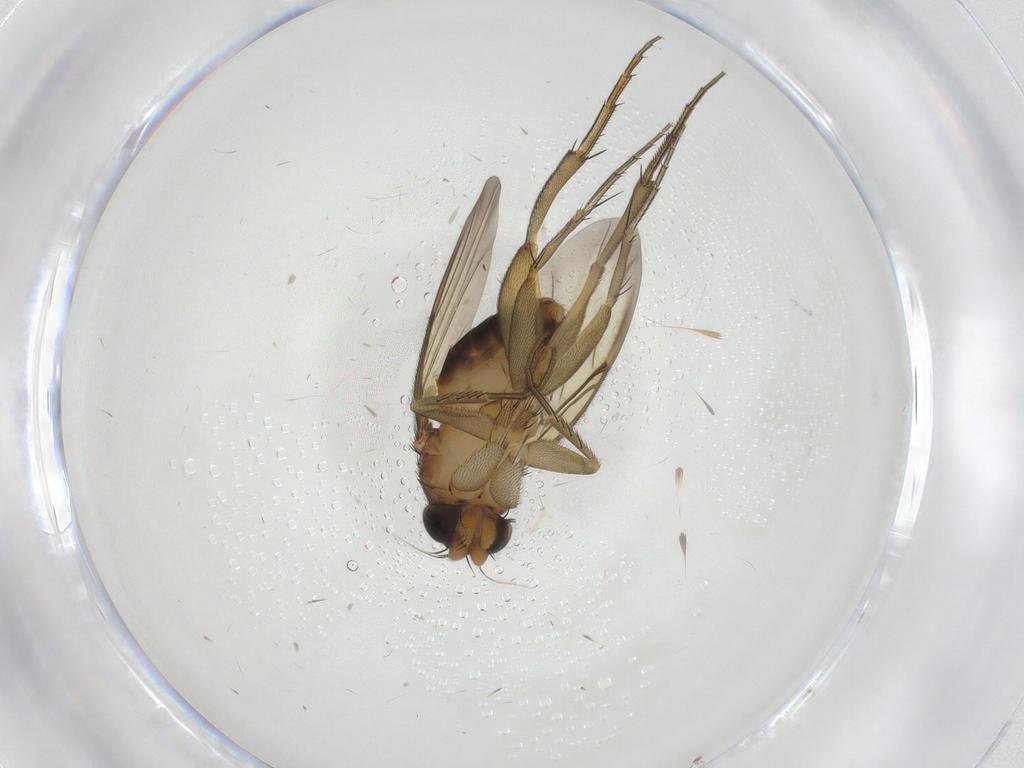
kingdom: Animalia
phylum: Arthropoda
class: Insecta
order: Diptera
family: Phoridae
